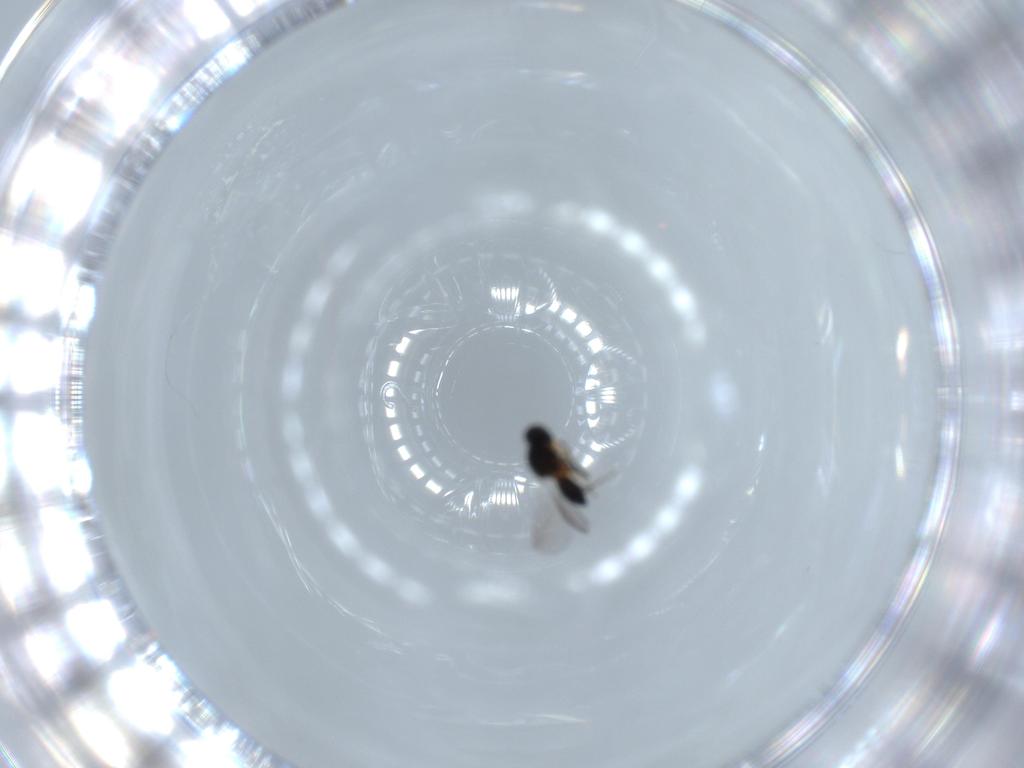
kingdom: Animalia
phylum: Arthropoda
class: Insecta
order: Hymenoptera
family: Platygastridae
